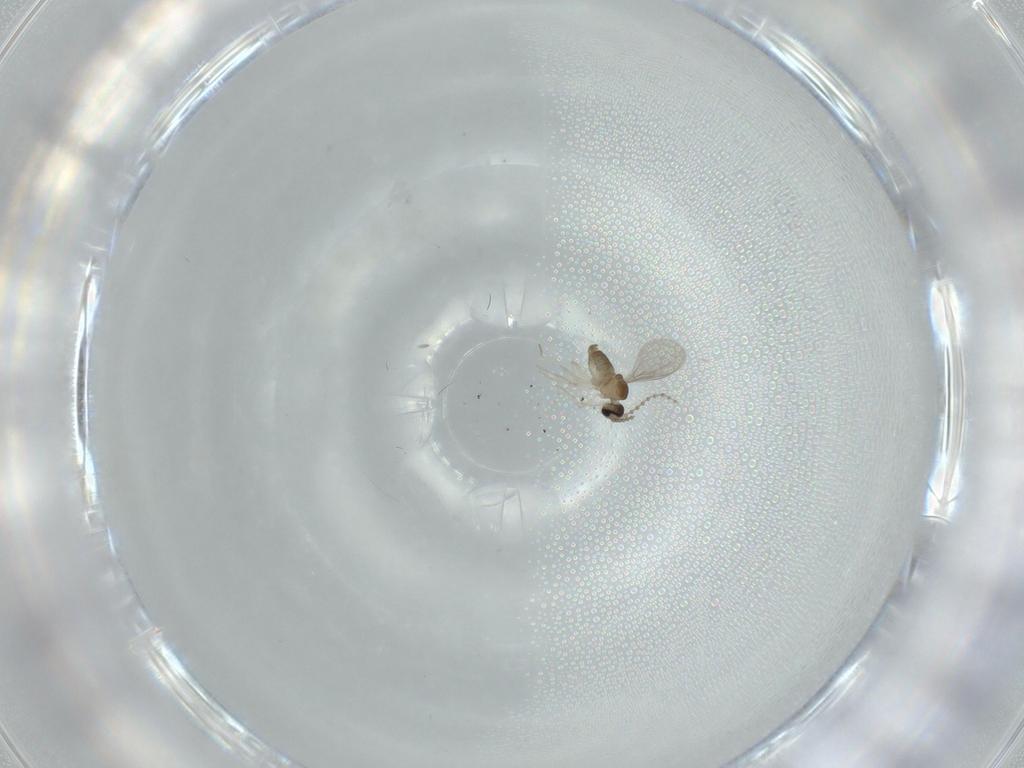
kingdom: Animalia
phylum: Arthropoda
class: Insecta
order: Diptera
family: Cecidomyiidae
